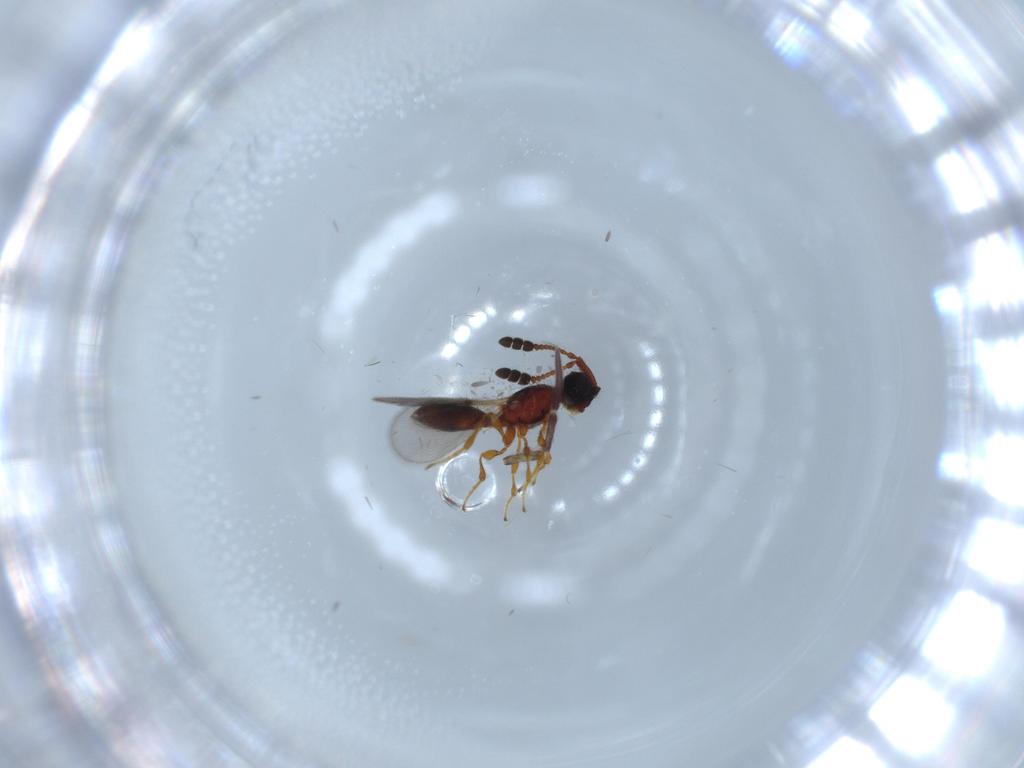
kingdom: Animalia
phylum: Arthropoda
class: Insecta
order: Hymenoptera
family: Diapriidae
